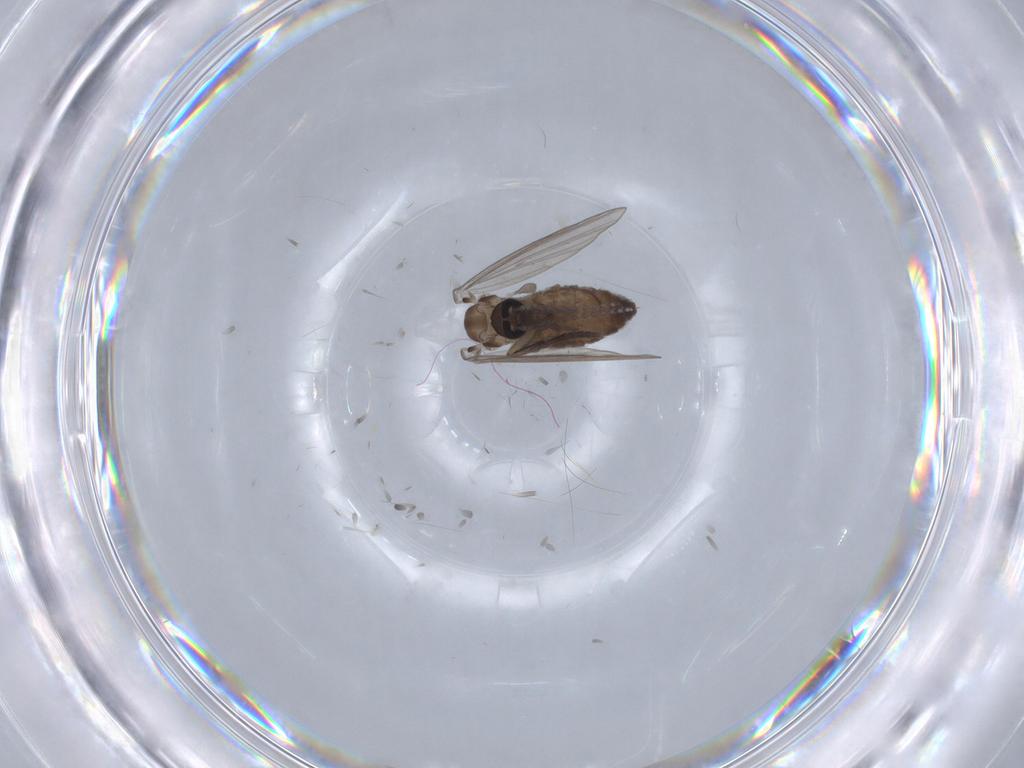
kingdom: Animalia
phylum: Arthropoda
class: Insecta
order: Diptera
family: Psychodidae
